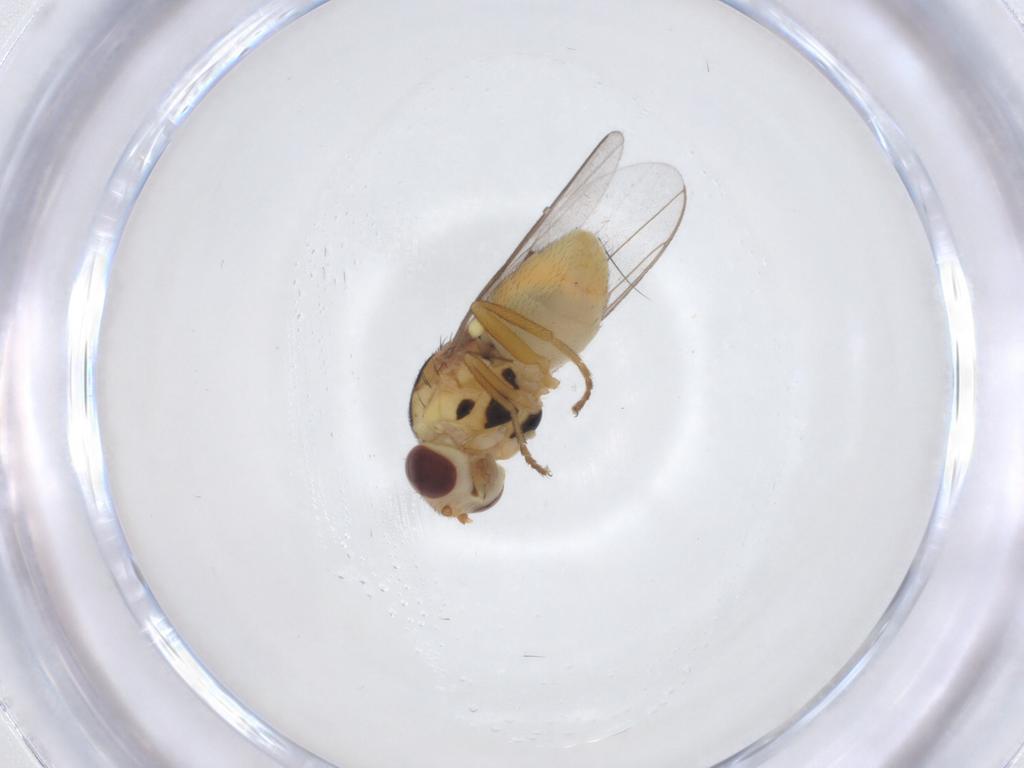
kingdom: Animalia
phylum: Arthropoda
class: Insecta
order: Diptera
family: Chloropidae
